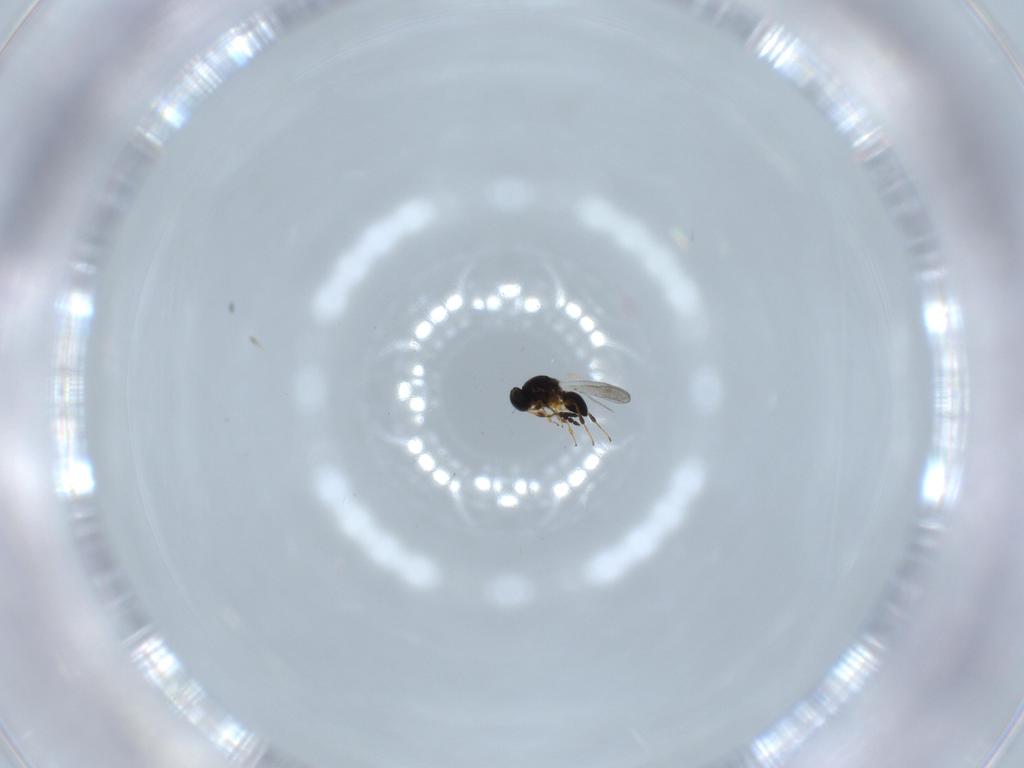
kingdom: Animalia
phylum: Arthropoda
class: Insecta
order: Hymenoptera
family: Platygastridae
